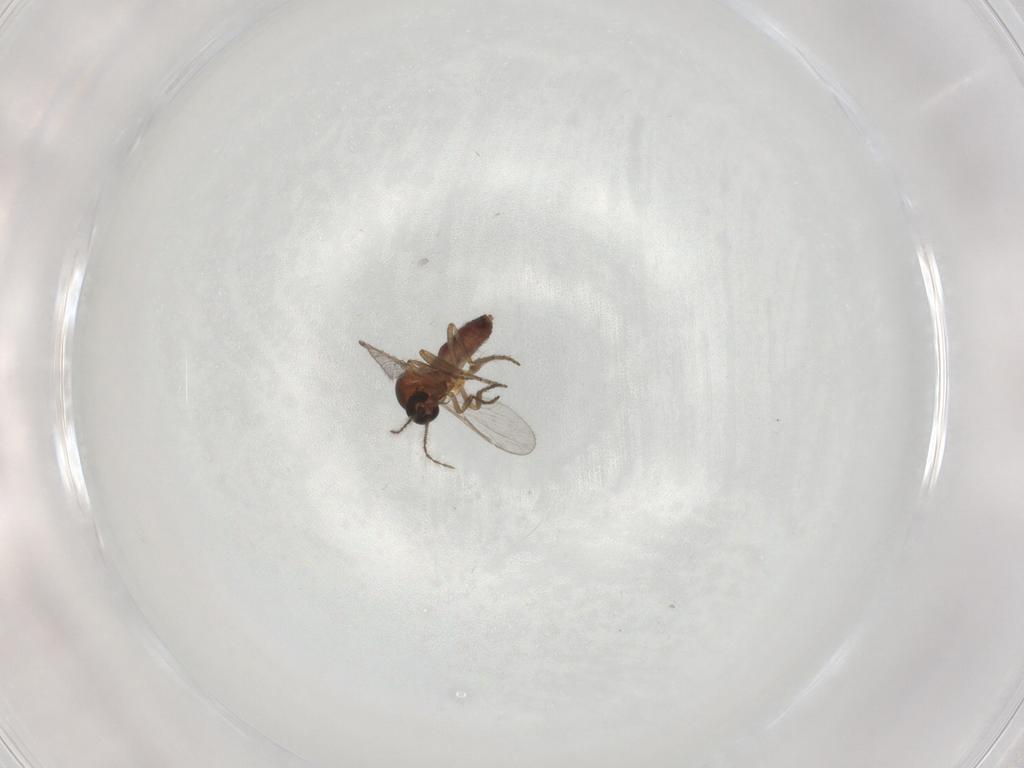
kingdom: Animalia
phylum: Arthropoda
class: Insecta
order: Diptera
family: Ceratopogonidae
